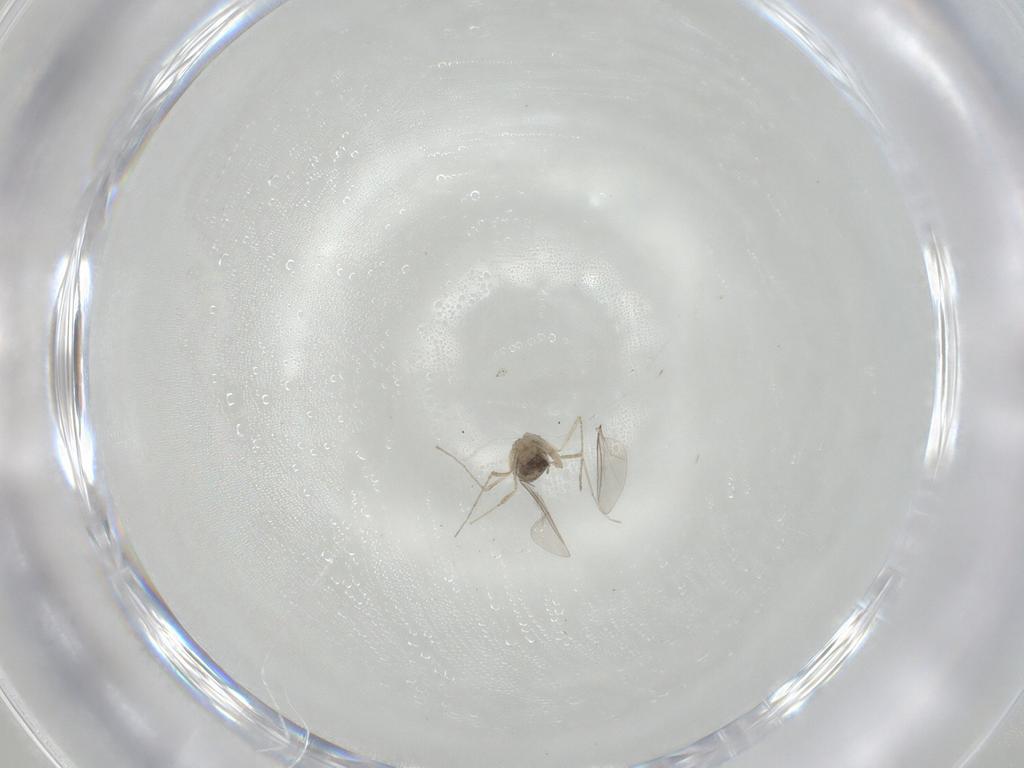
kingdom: Animalia
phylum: Arthropoda
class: Insecta
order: Diptera
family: Cecidomyiidae
